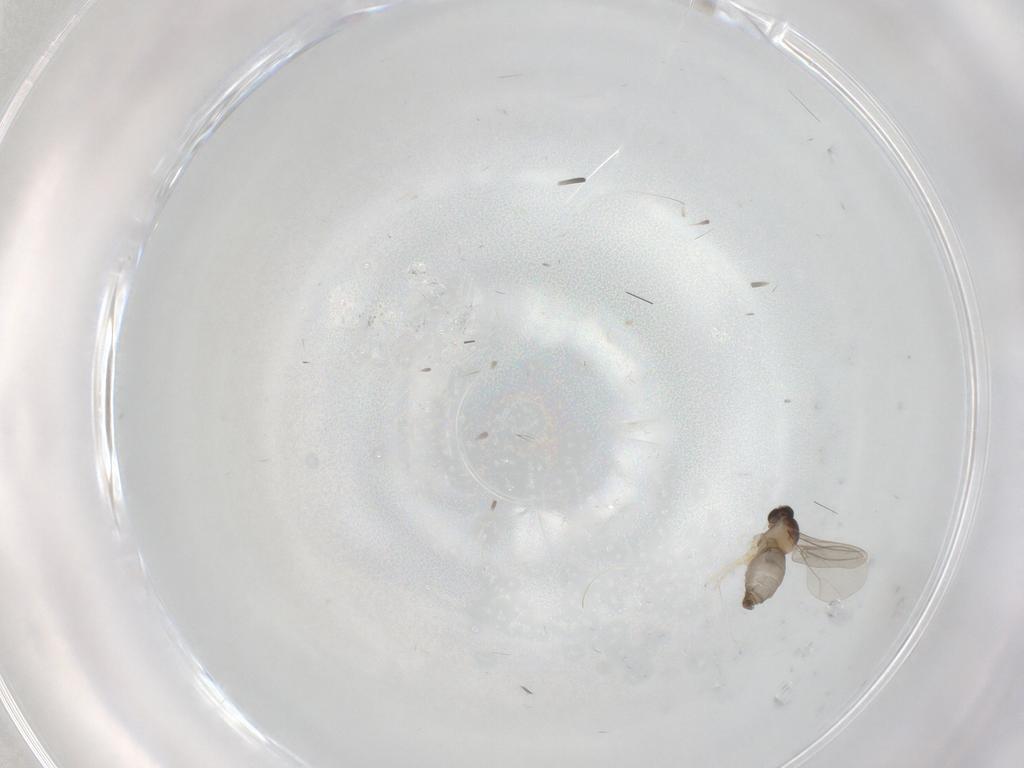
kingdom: Animalia
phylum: Arthropoda
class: Insecta
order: Diptera
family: Cecidomyiidae
